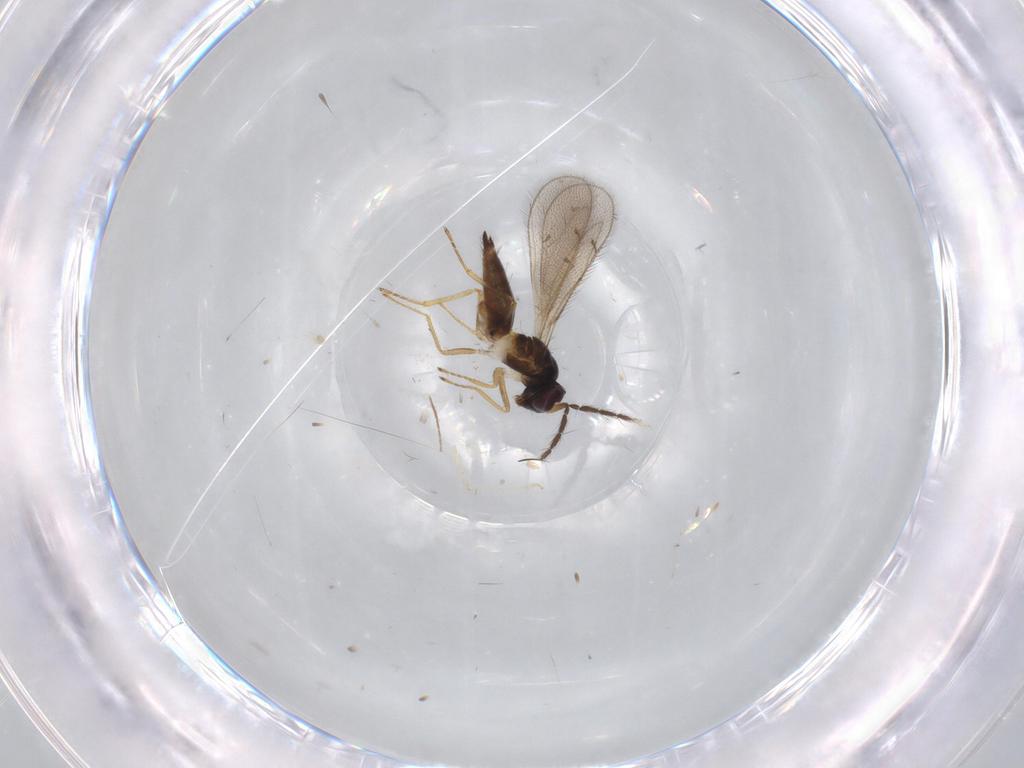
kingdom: Animalia
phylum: Arthropoda
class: Insecta
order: Hymenoptera
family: Eulophidae
